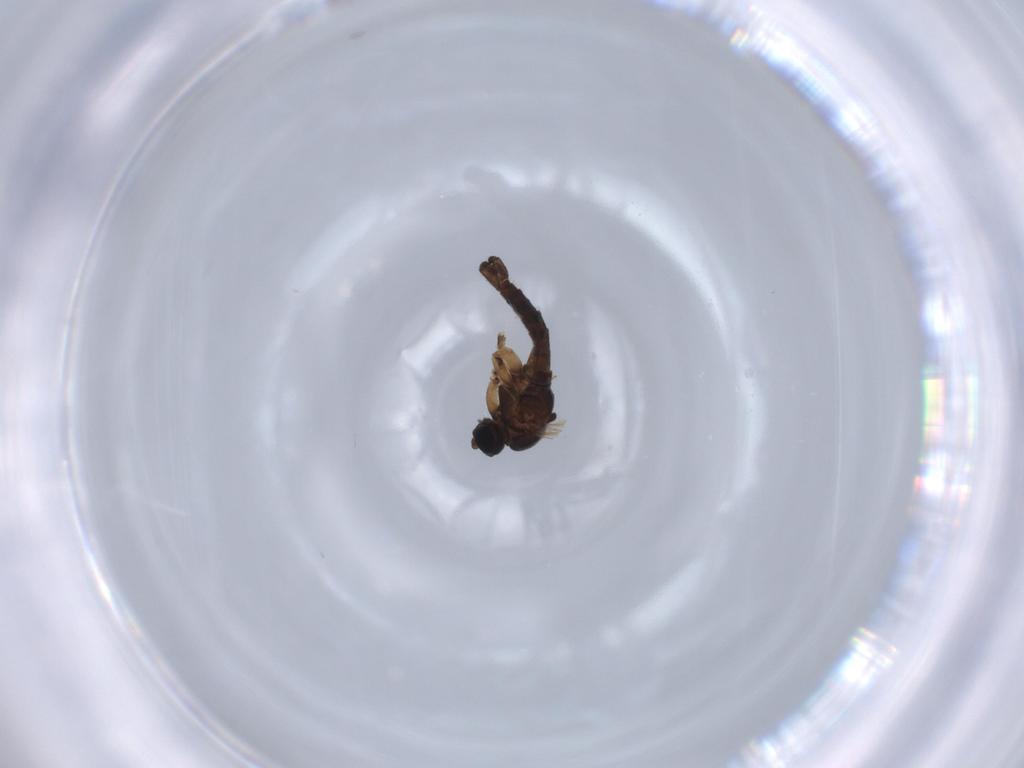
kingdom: Animalia
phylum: Arthropoda
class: Insecta
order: Diptera
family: Sciaridae
